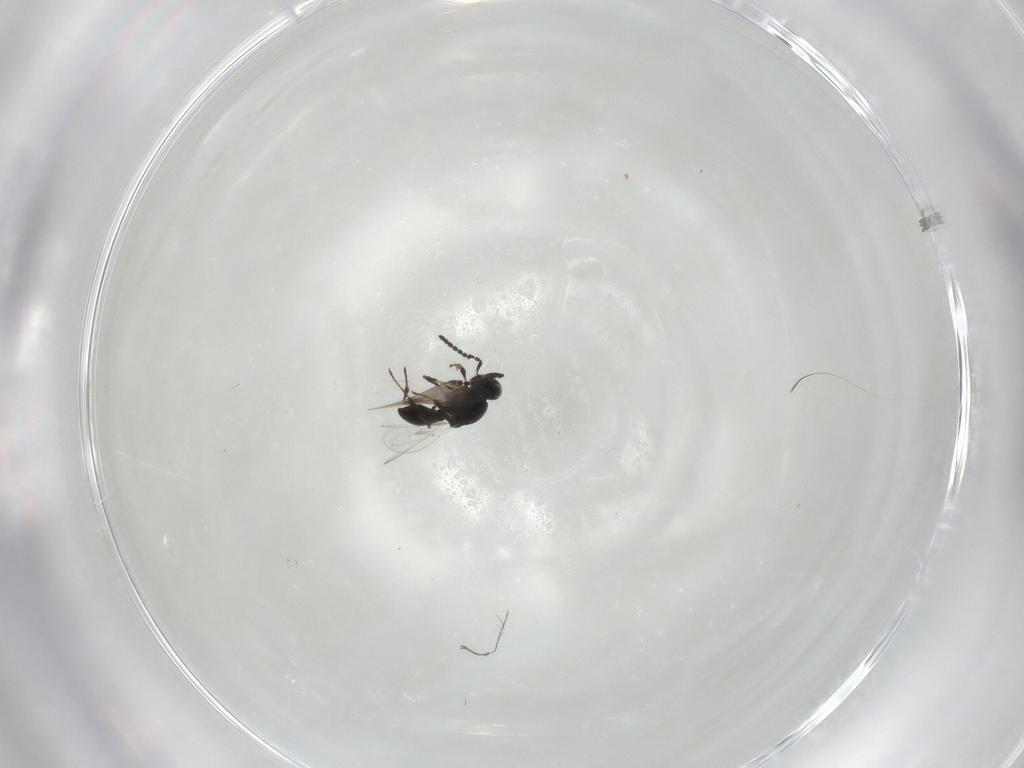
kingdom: Animalia
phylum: Arthropoda
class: Insecta
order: Hymenoptera
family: Platygastridae
